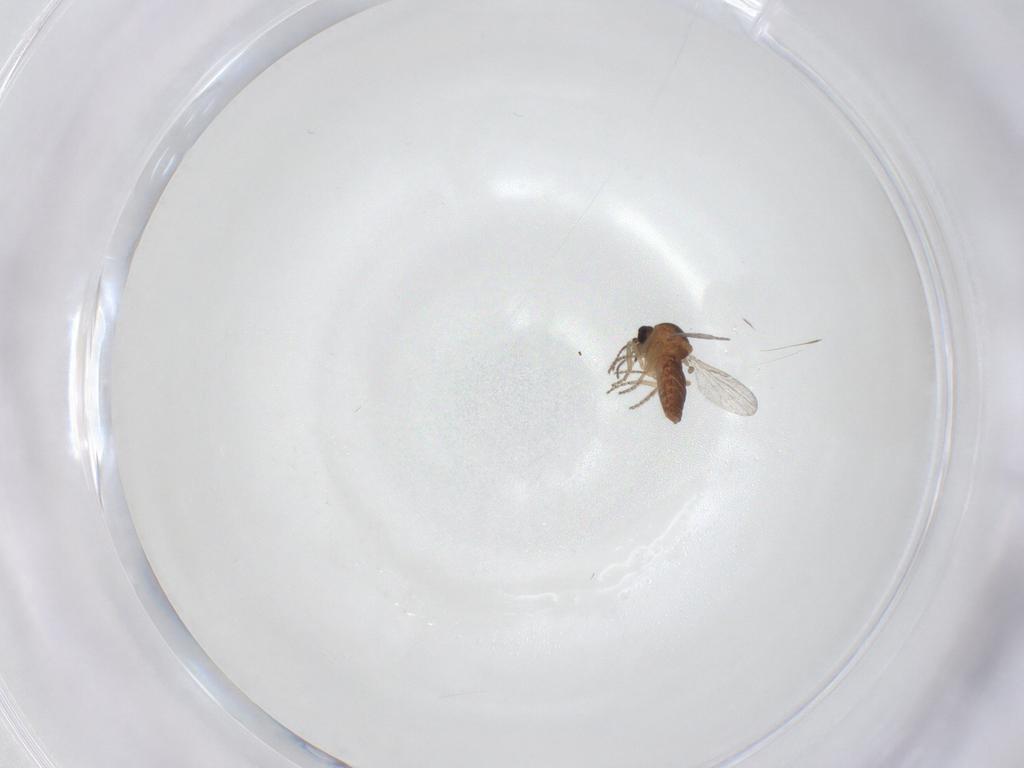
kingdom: Animalia
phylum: Arthropoda
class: Insecta
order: Diptera
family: Ceratopogonidae
